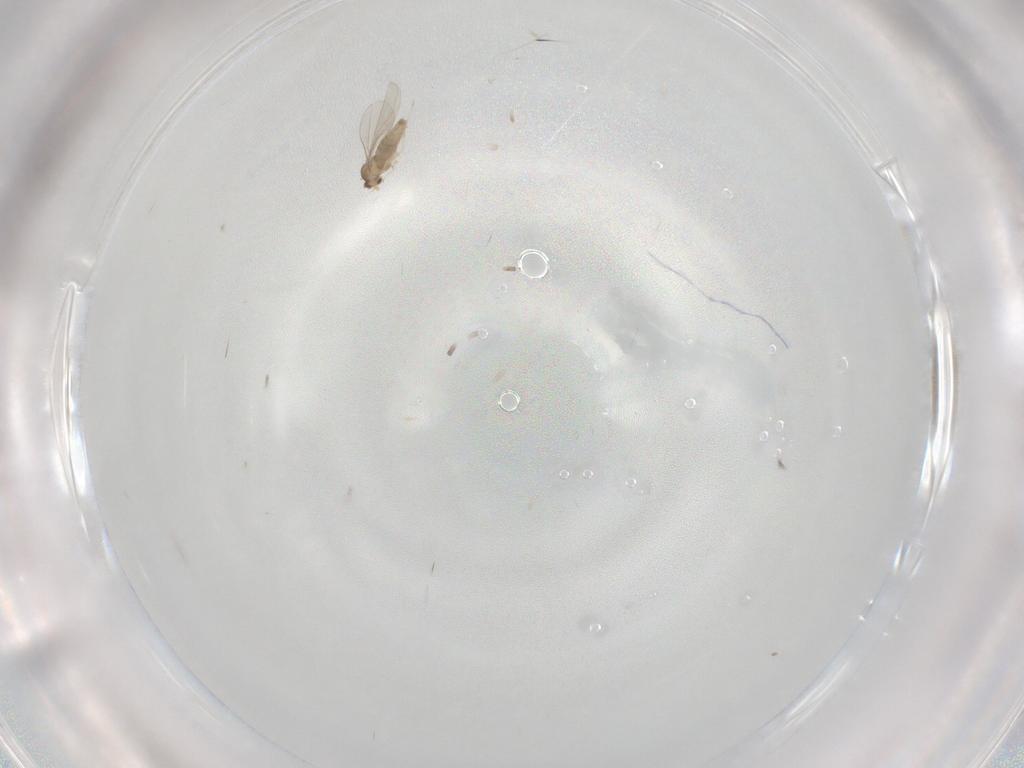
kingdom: Animalia
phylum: Arthropoda
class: Insecta
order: Diptera
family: Cecidomyiidae
